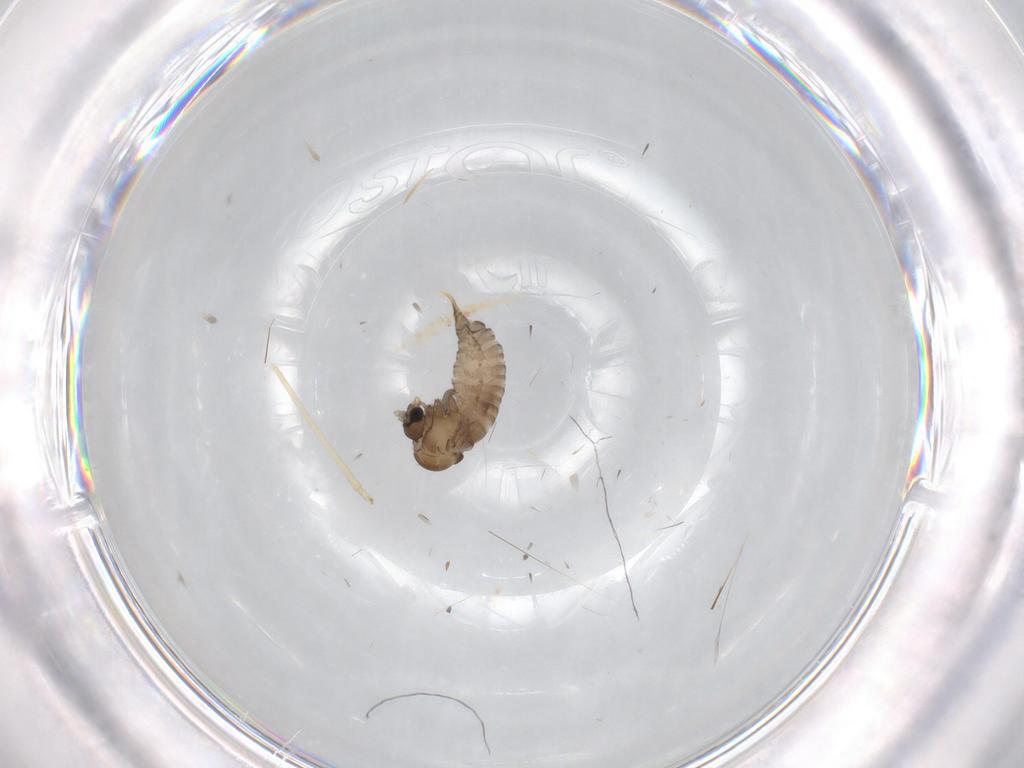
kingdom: Animalia
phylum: Arthropoda
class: Insecta
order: Diptera
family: Psychodidae
